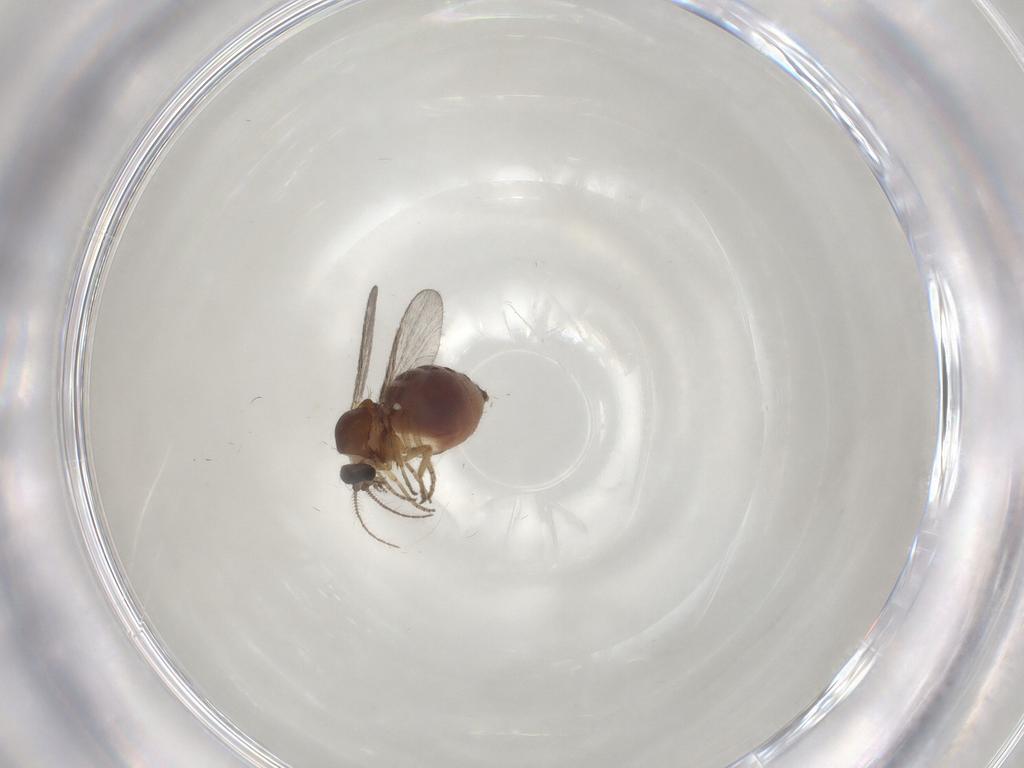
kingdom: Animalia
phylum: Arthropoda
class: Insecta
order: Diptera
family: Ceratopogonidae
